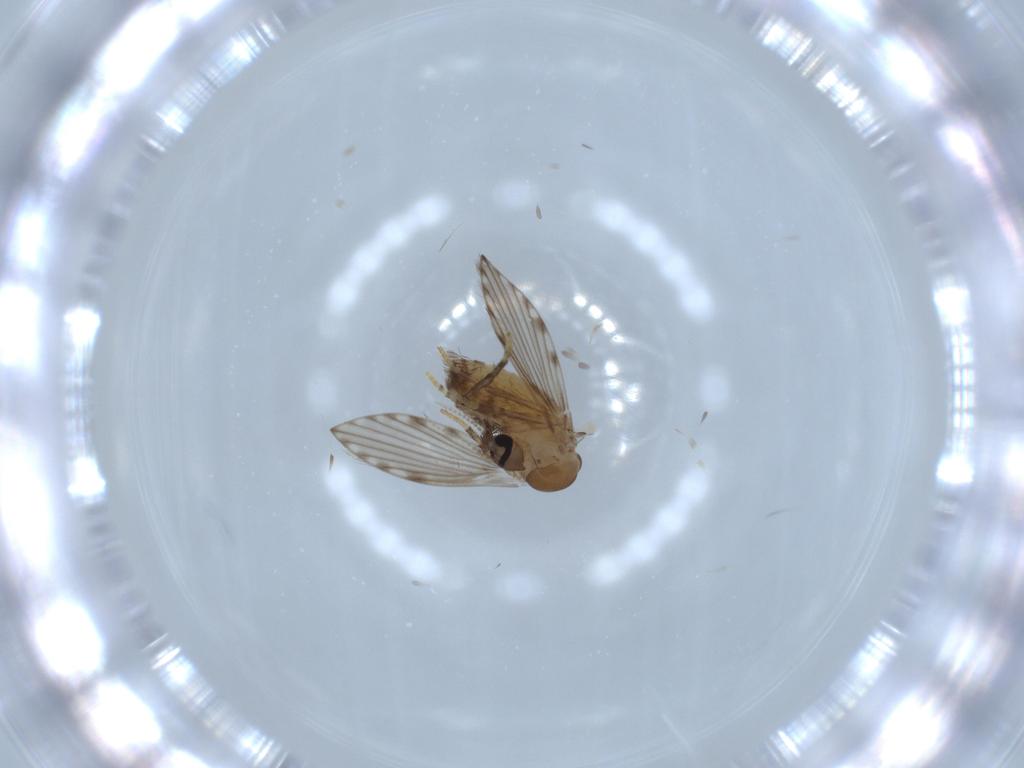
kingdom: Animalia
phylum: Arthropoda
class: Insecta
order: Diptera
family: Psychodidae
